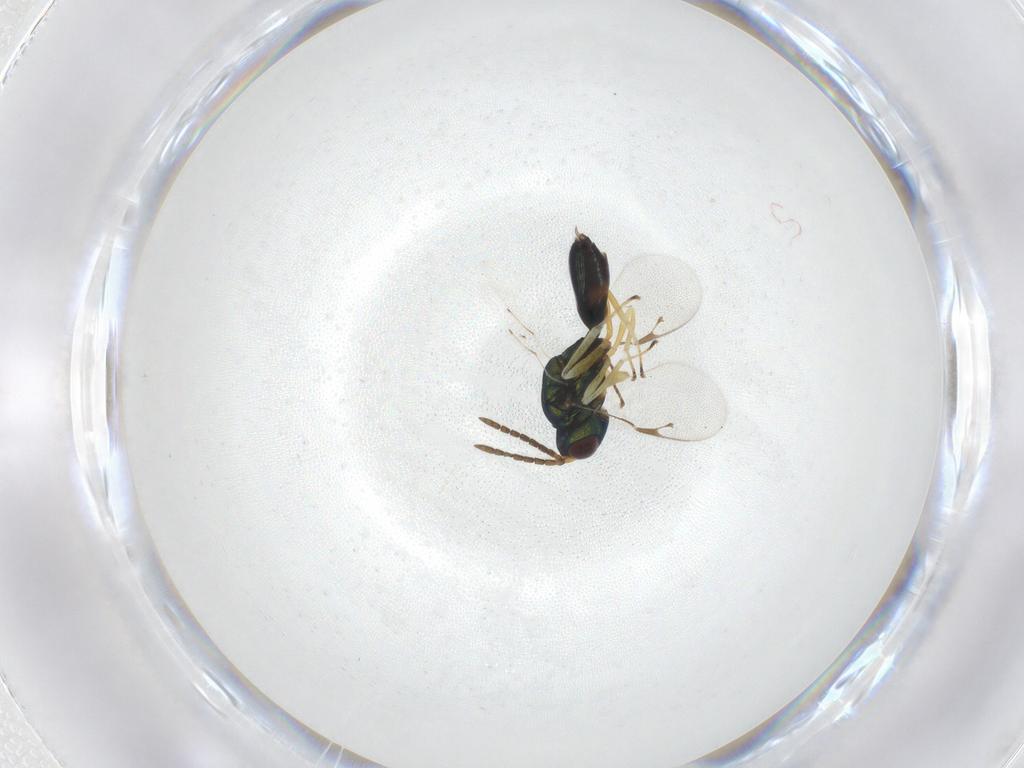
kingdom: Animalia
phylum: Arthropoda
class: Insecta
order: Hymenoptera
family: Pteromalidae
